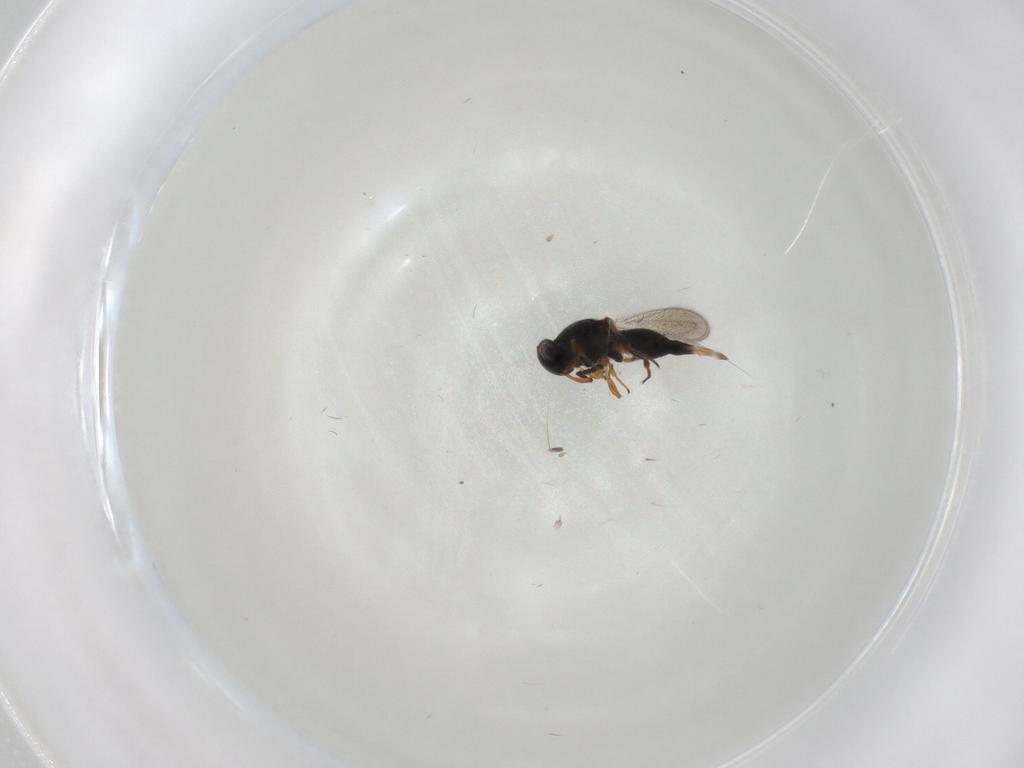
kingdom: Animalia
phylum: Arthropoda
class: Insecta
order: Hymenoptera
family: Platygastridae
